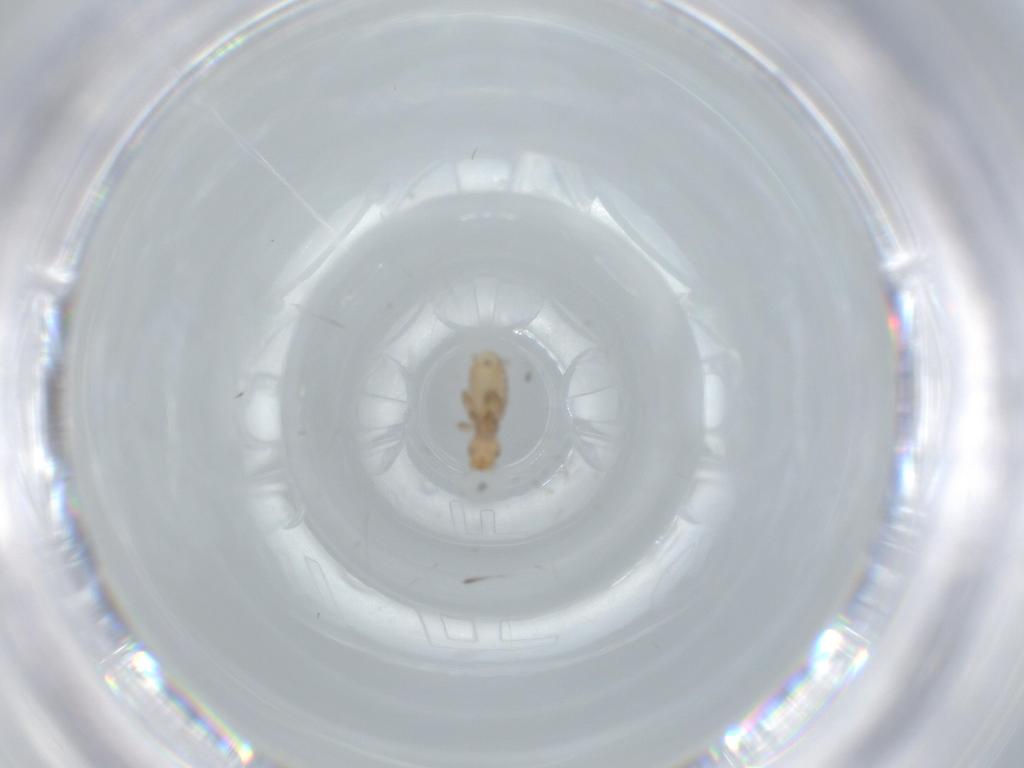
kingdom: Animalia
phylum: Arthropoda
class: Insecta
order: Psocodea
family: Liposcelididae
